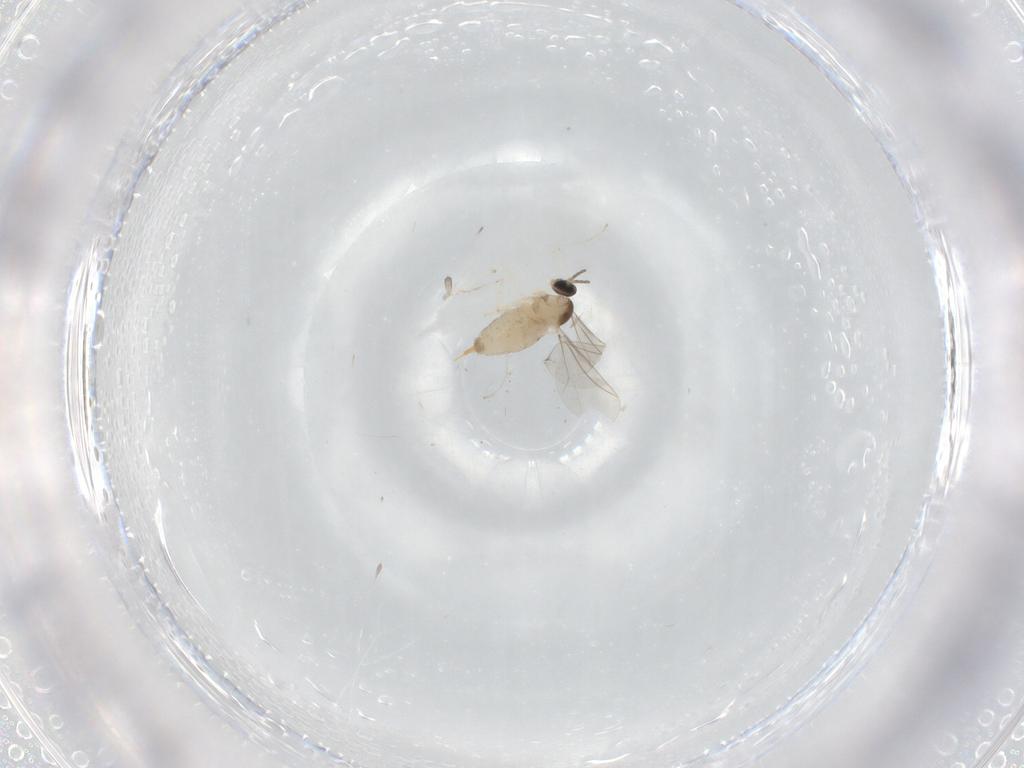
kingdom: Animalia
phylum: Arthropoda
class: Insecta
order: Diptera
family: Cecidomyiidae
